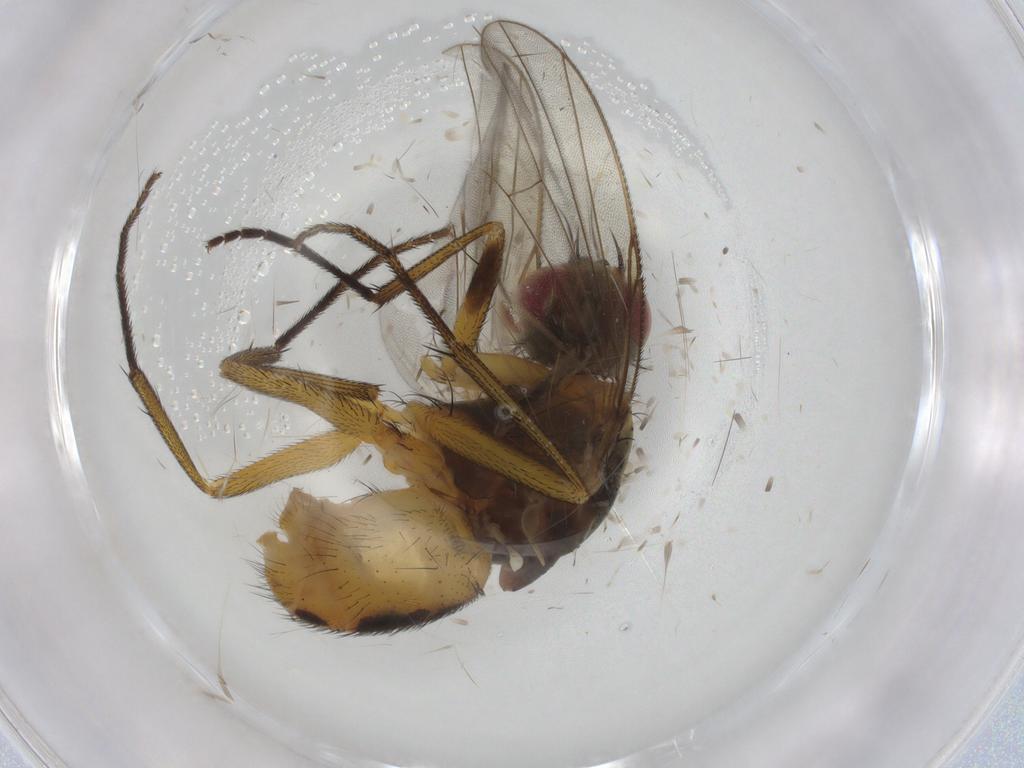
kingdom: Animalia
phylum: Arthropoda
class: Insecta
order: Diptera
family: Muscidae
